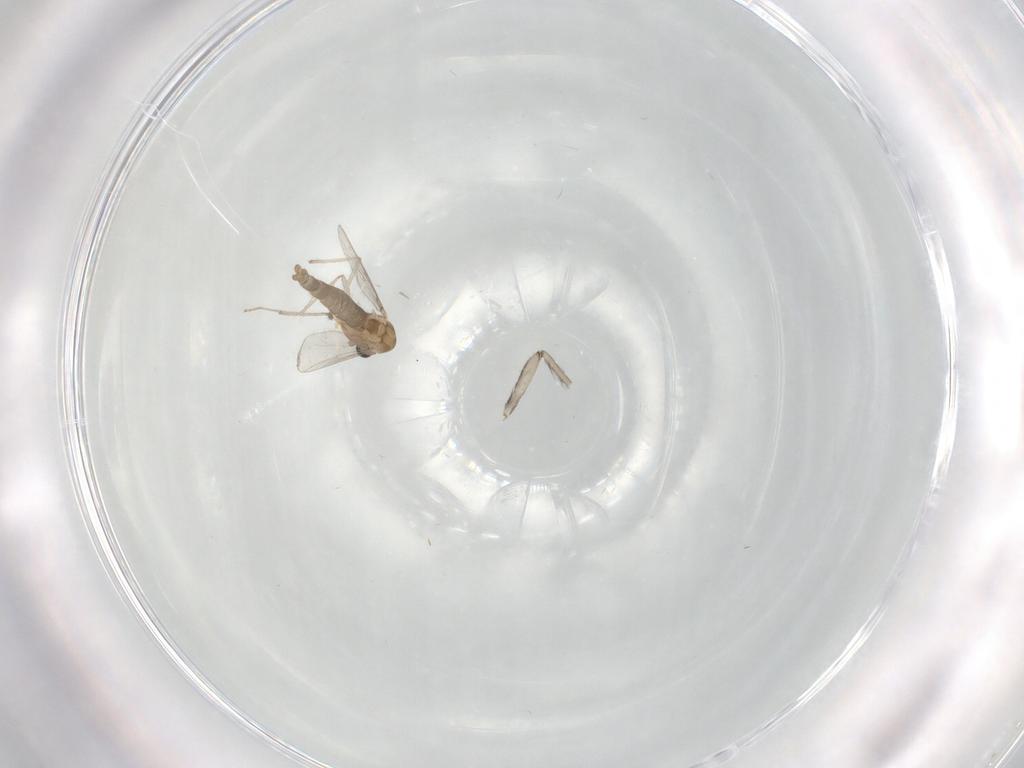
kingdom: Animalia
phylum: Arthropoda
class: Insecta
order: Diptera
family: Chironomidae
